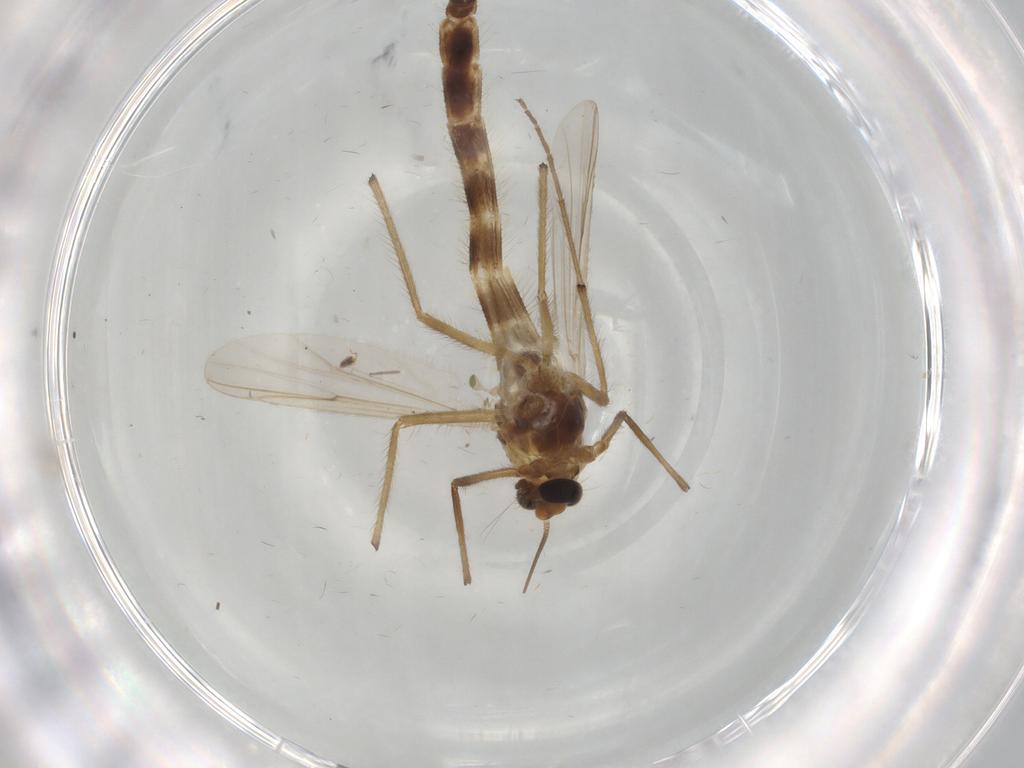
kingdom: Animalia
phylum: Arthropoda
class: Insecta
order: Diptera
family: Chironomidae
